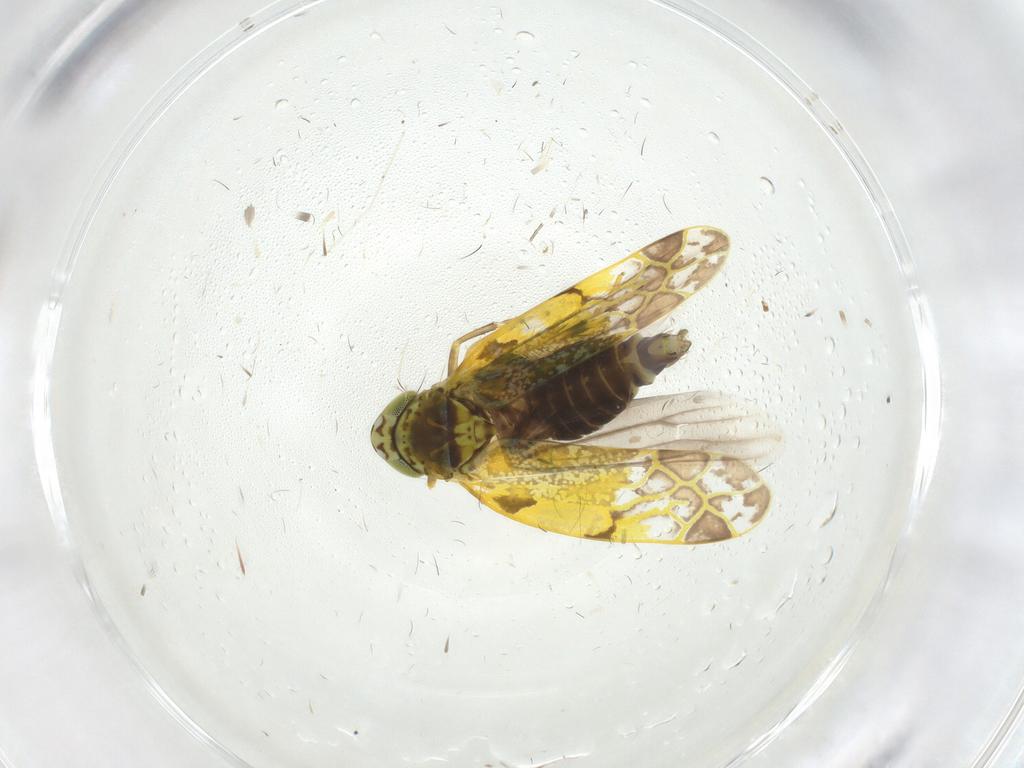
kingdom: Animalia
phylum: Arthropoda
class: Insecta
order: Hemiptera
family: Cicadellidae
